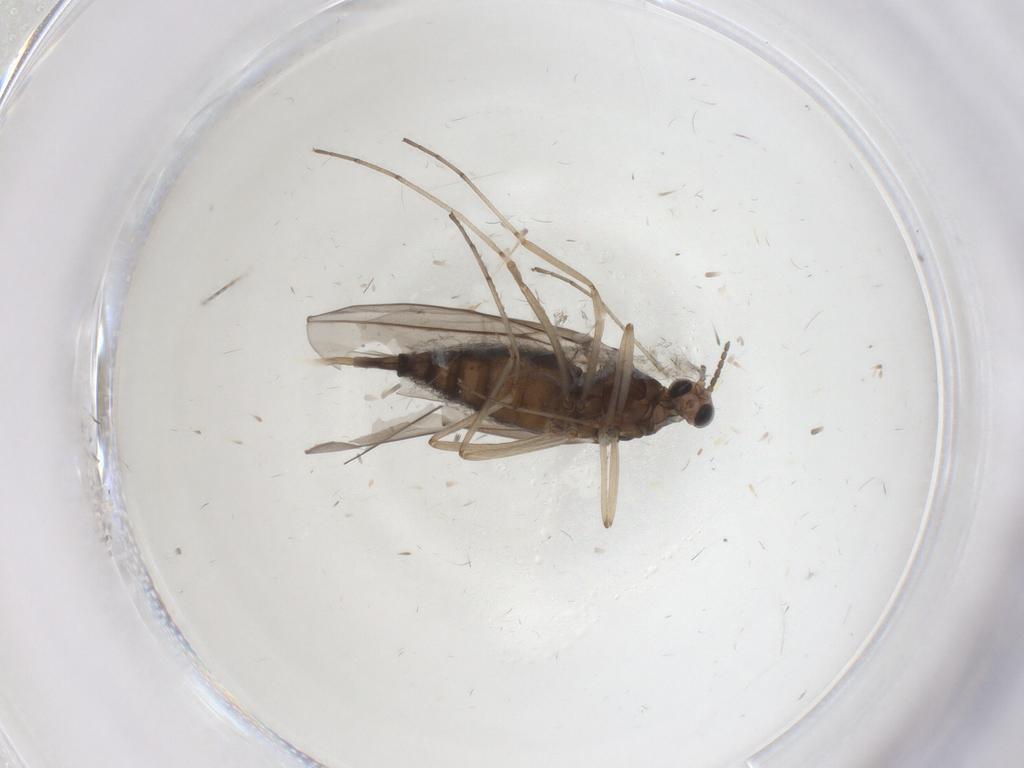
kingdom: Animalia
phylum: Arthropoda
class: Insecta
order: Diptera
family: Cecidomyiidae
